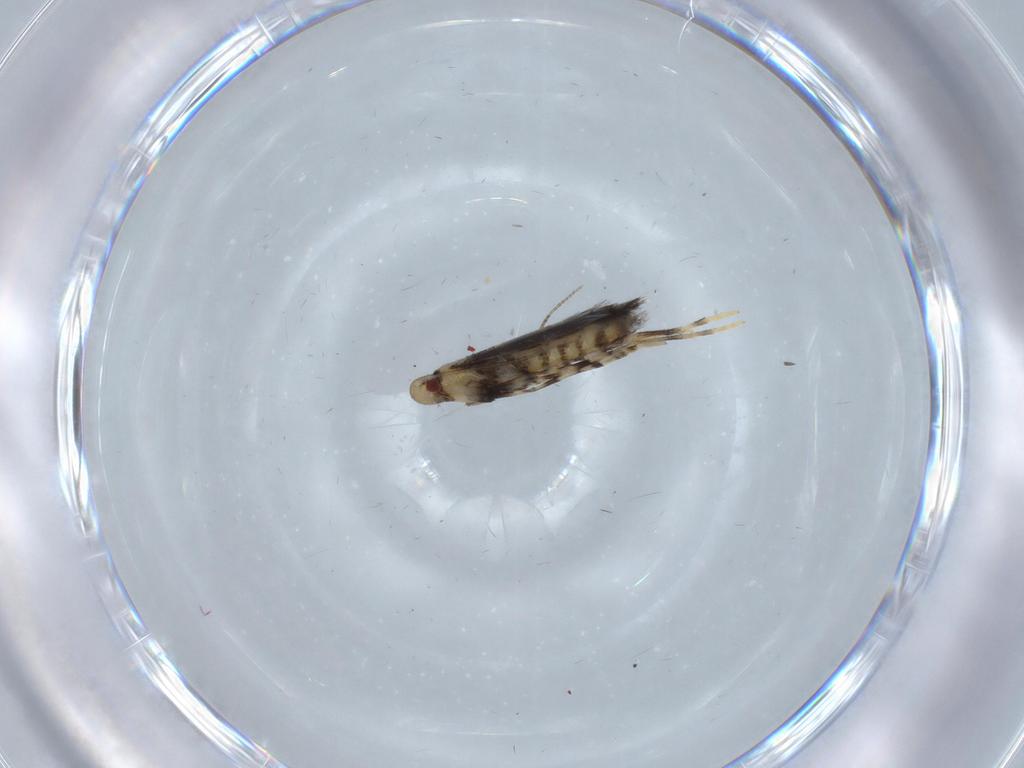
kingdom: Animalia
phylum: Arthropoda
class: Insecta
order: Lepidoptera
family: Gracillariidae
